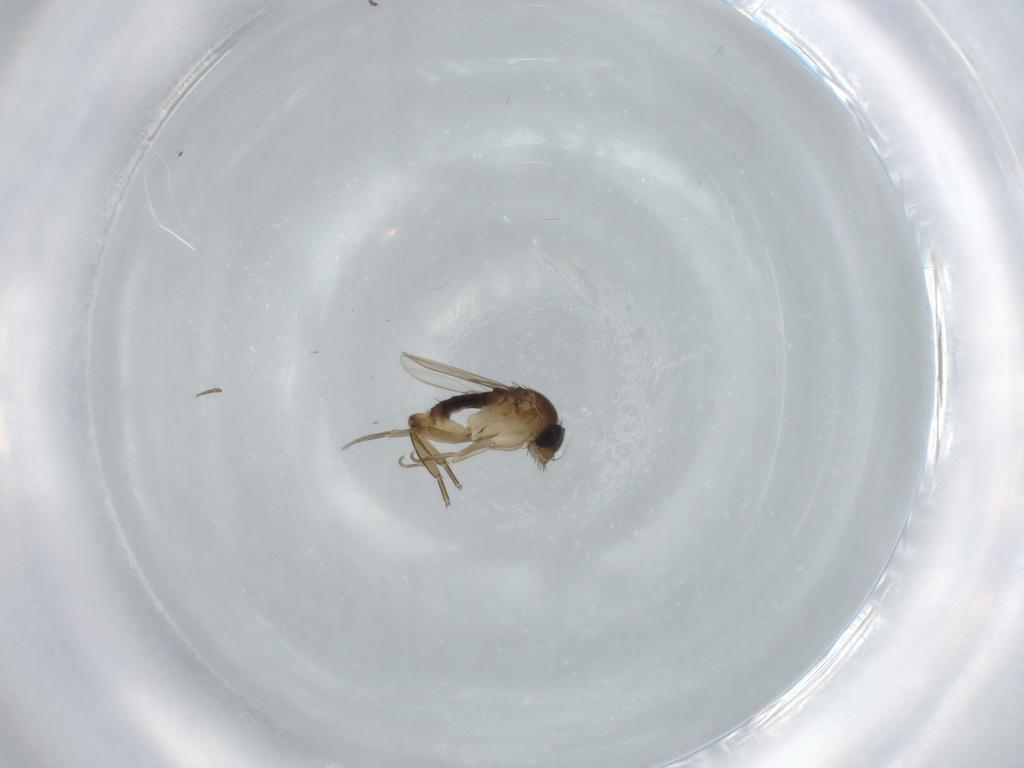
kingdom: Animalia
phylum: Arthropoda
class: Insecta
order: Diptera
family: Phoridae
